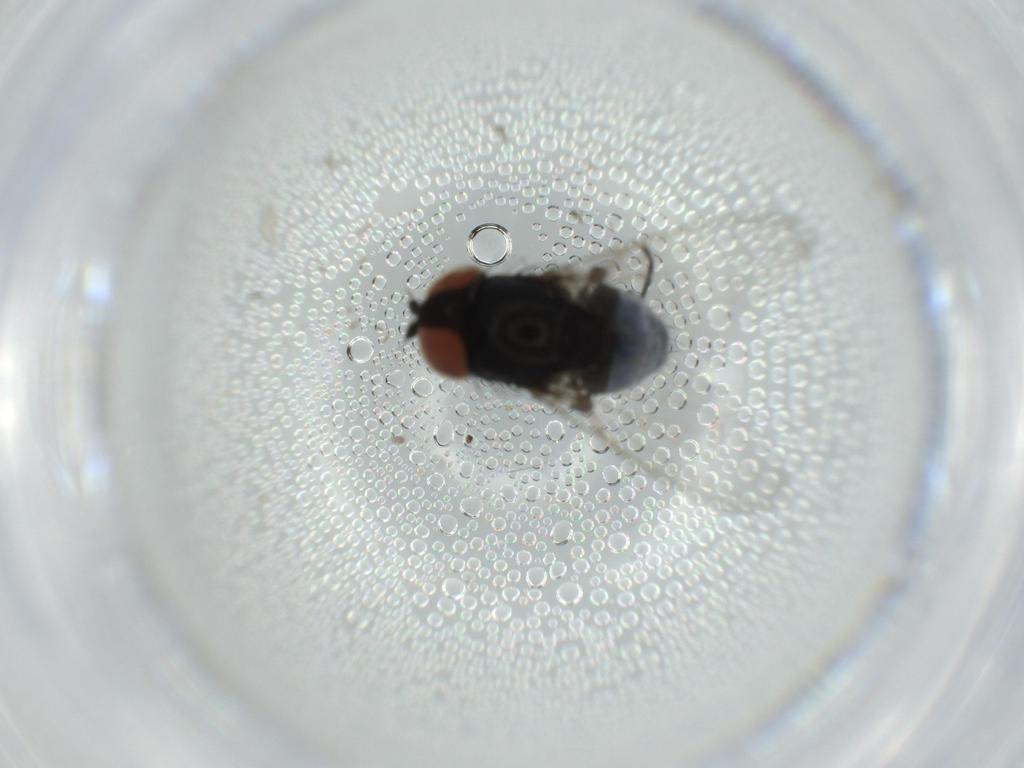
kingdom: Animalia
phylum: Arthropoda
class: Insecta
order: Diptera
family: Milichiidae
